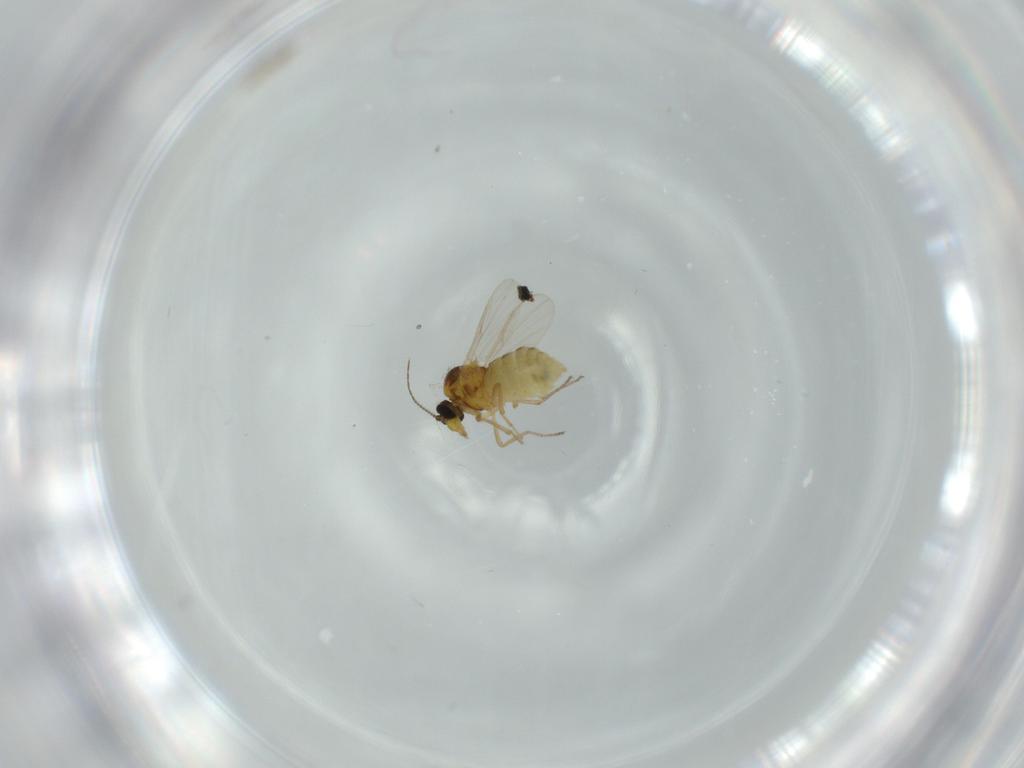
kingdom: Animalia
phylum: Arthropoda
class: Insecta
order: Diptera
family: Ceratopogonidae
